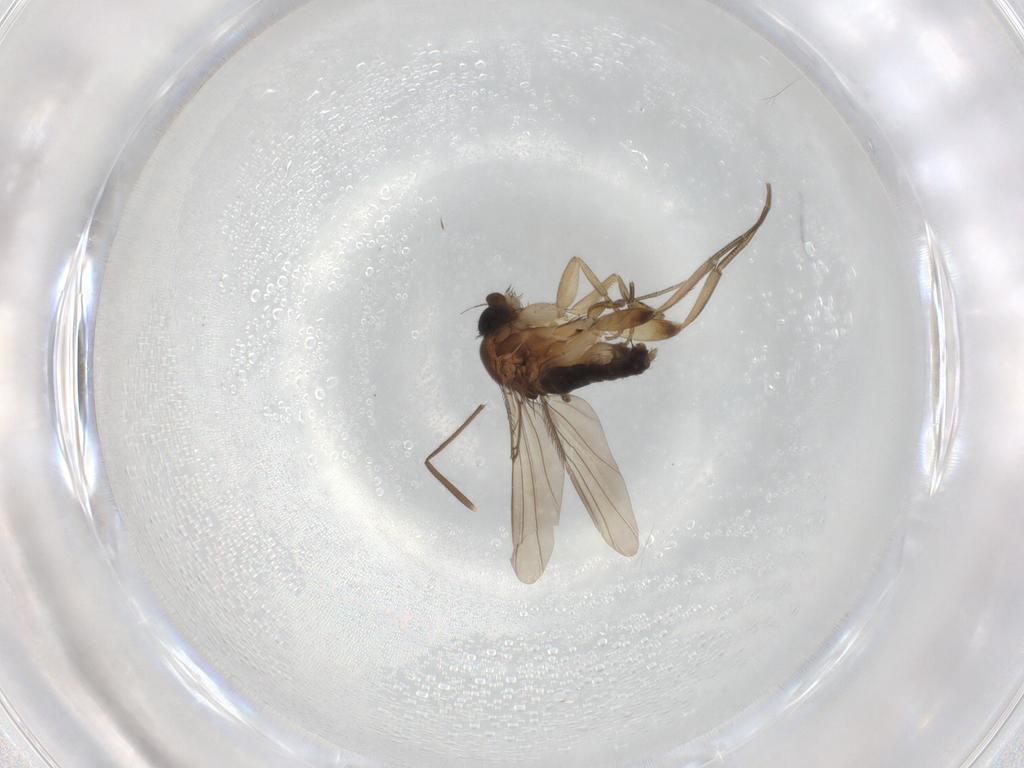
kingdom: Animalia
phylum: Arthropoda
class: Insecta
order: Diptera
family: Phoridae
